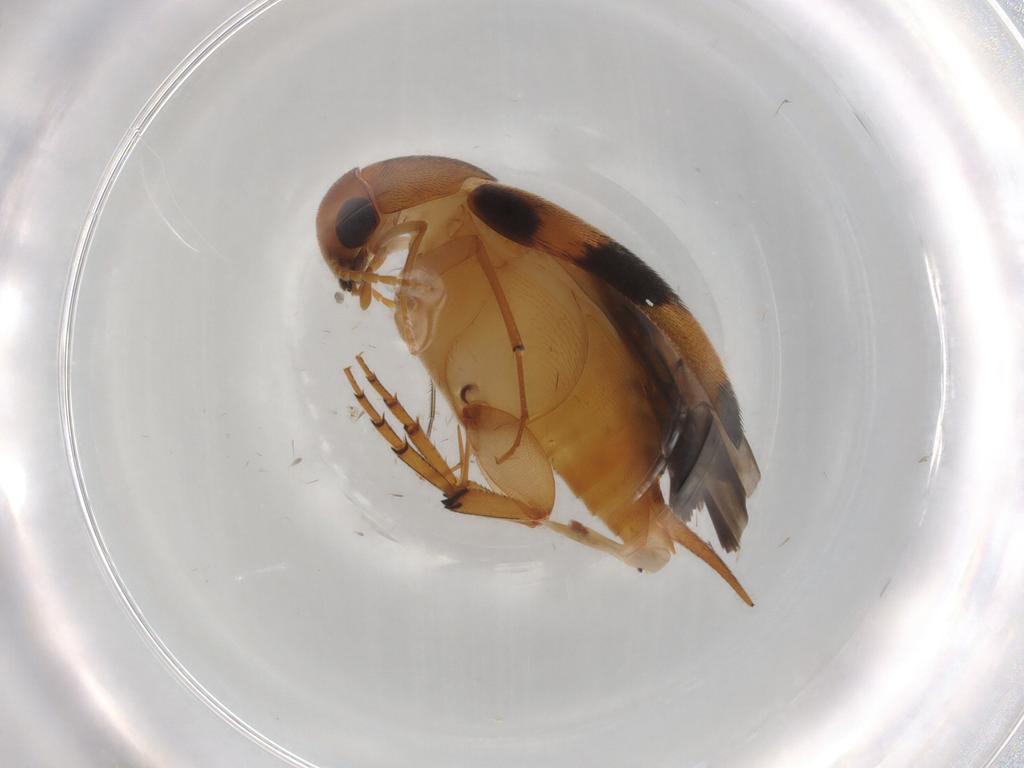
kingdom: Animalia
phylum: Arthropoda
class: Insecta
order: Coleoptera
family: Mordellidae
